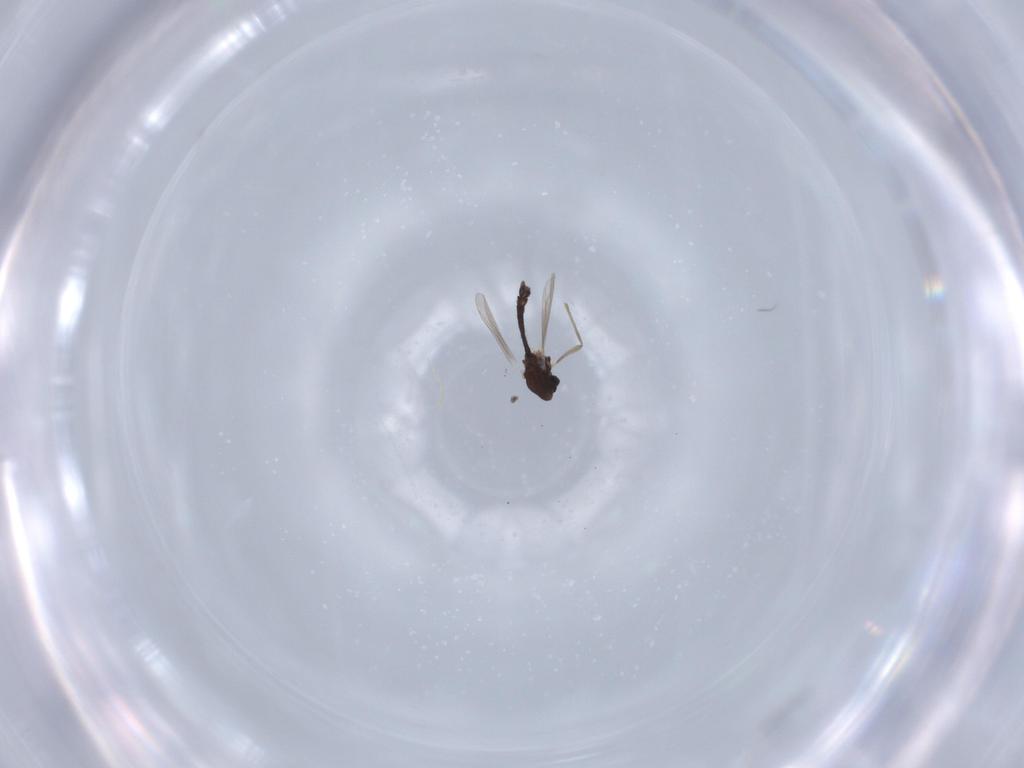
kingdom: Animalia
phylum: Arthropoda
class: Insecta
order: Diptera
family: Chironomidae
